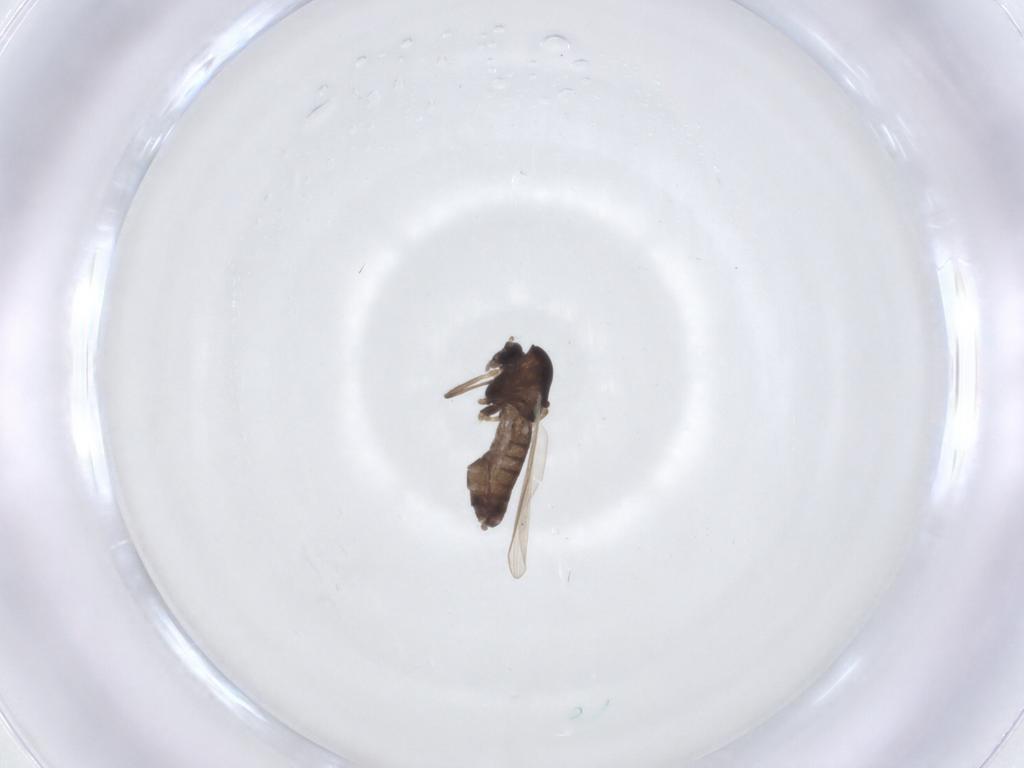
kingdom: Animalia
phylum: Arthropoda
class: Insecta
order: Diptera
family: Chironomidae
